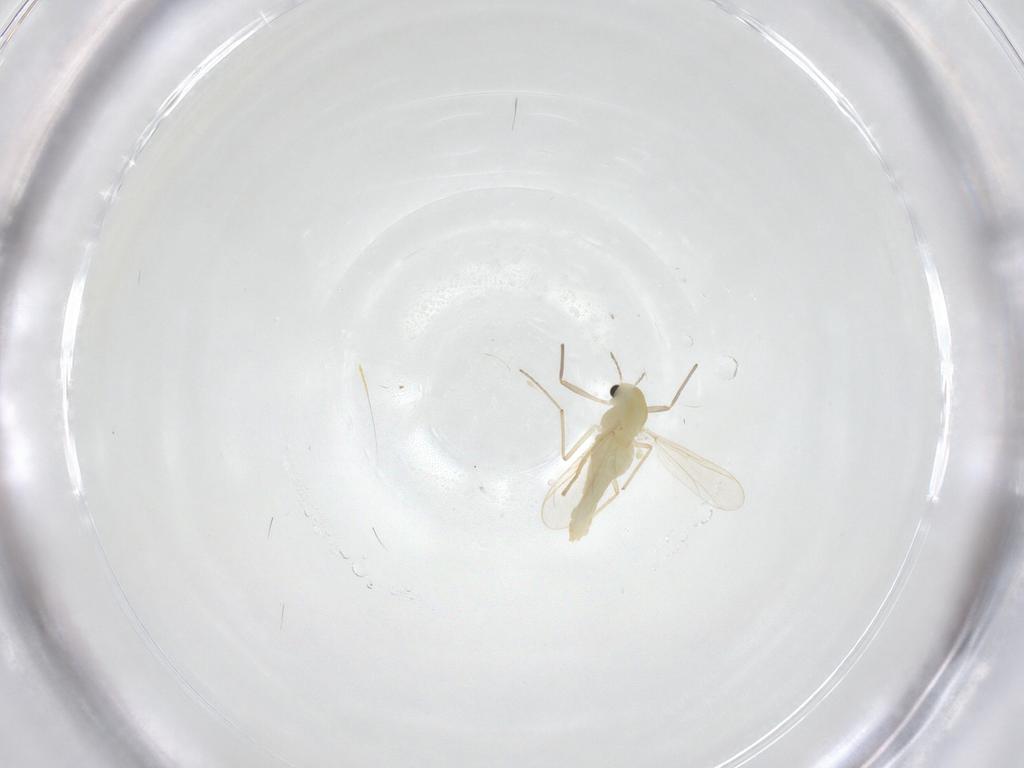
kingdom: Animalia
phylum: Arthropoda
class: Insecta
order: Diptera
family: Chironomidae
